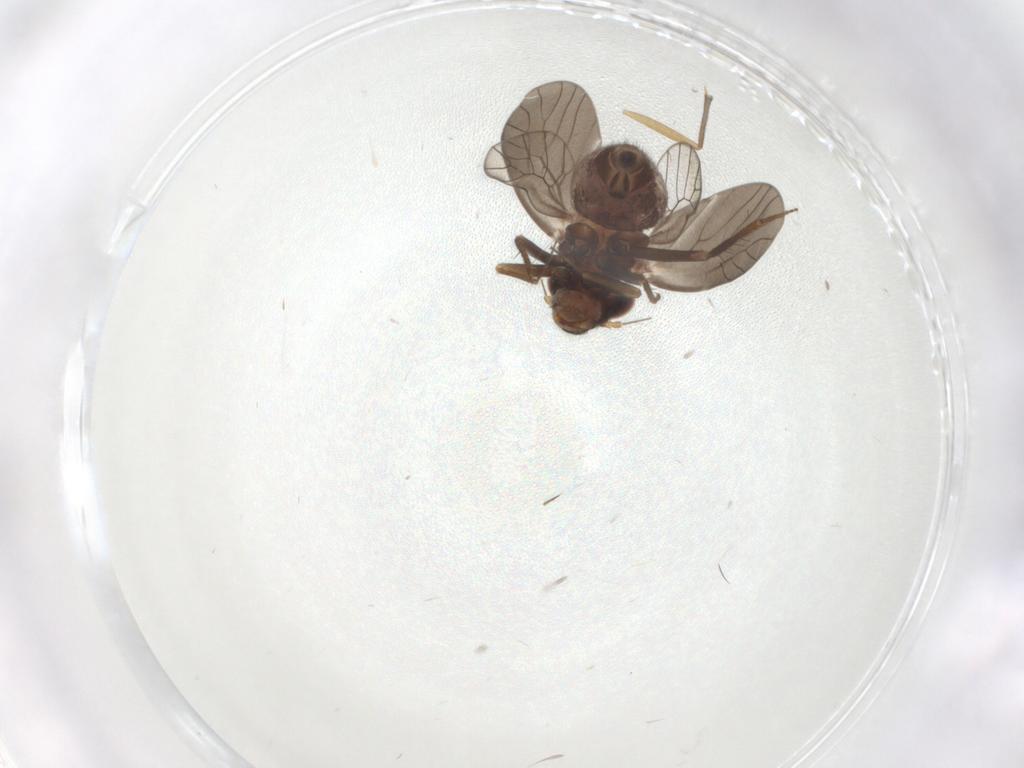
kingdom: Animalia
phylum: Arthropoda
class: Insecta
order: Psocodea
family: Lepidopsocidae
